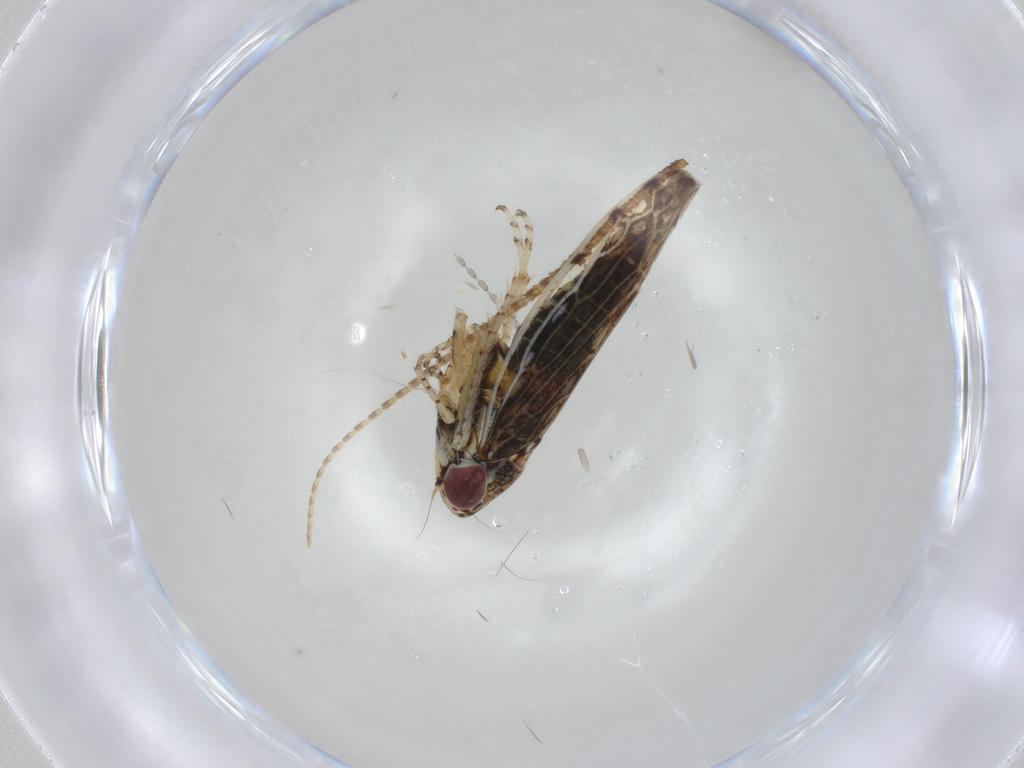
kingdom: Animalia
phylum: Arthropoda
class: Insecta
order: Hemiptera
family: Cicadellidae
